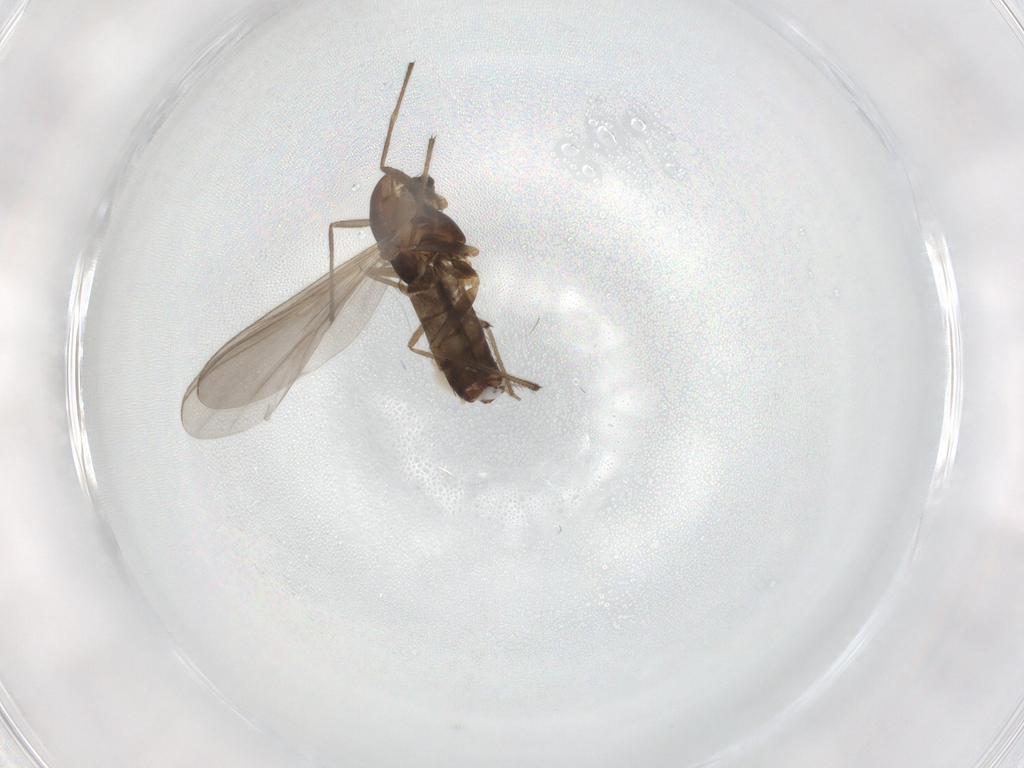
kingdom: Animalia
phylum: Arthropoda
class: Insecta
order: Diptera
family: Chironomidae
